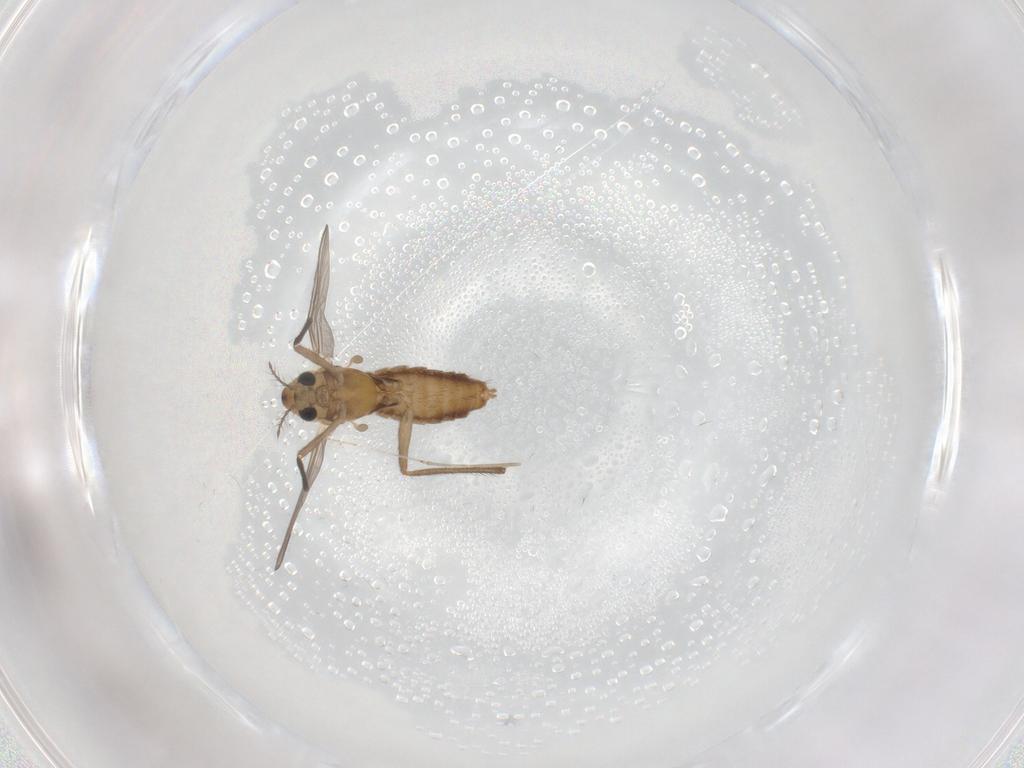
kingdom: Animalia
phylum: Arthropoda
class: Insecta
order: Diptera
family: Chironomidae
